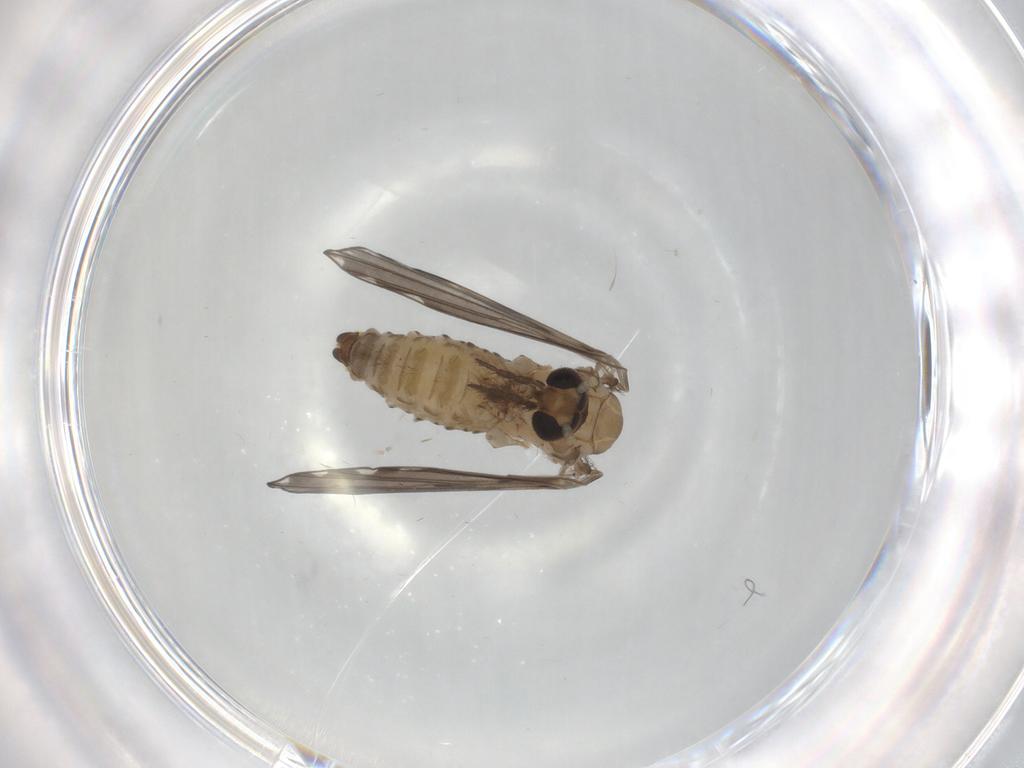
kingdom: Animalia
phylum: Arthropoda
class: Insecta
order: Diptera
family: Psychodidae
